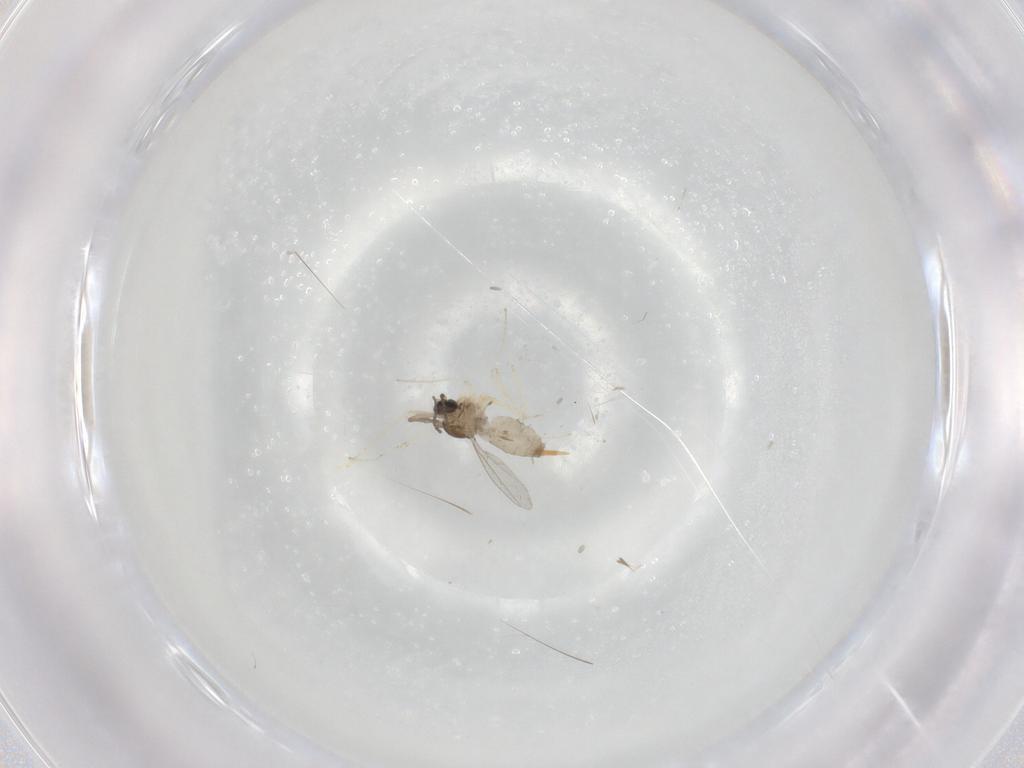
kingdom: Animalia
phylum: Arthropoda
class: Insecta
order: Diptera
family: Cecidomyiidae
